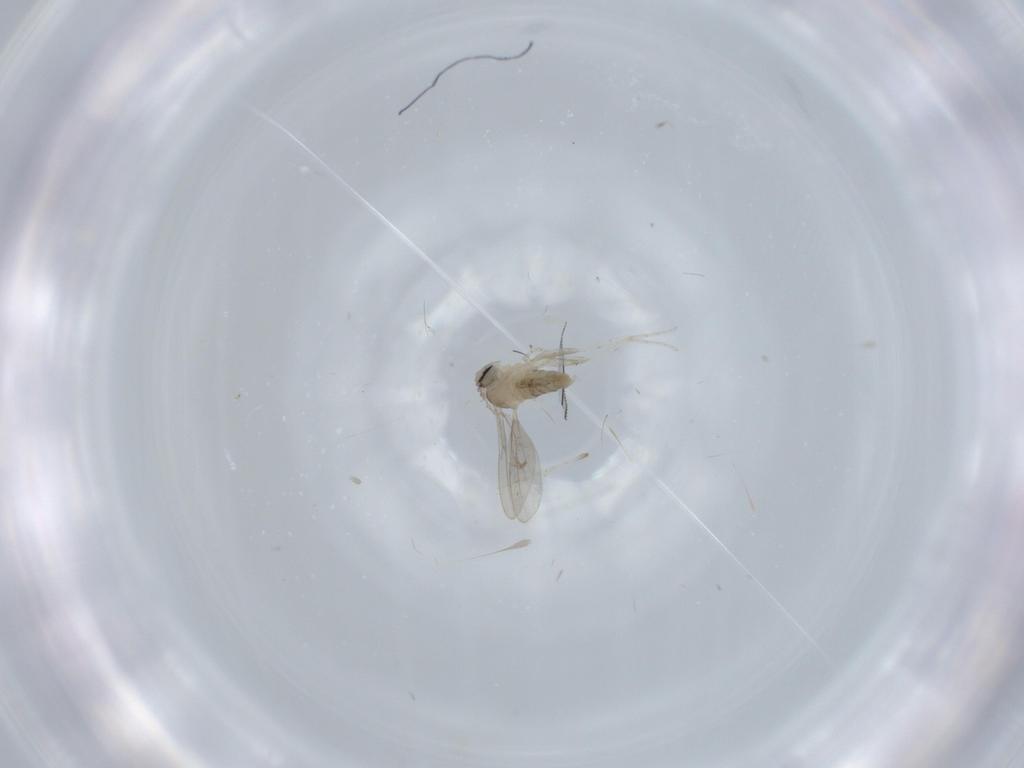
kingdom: Animalia
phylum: Arthropoda
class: Insecta
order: Diptera
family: Cecidomyiidae
